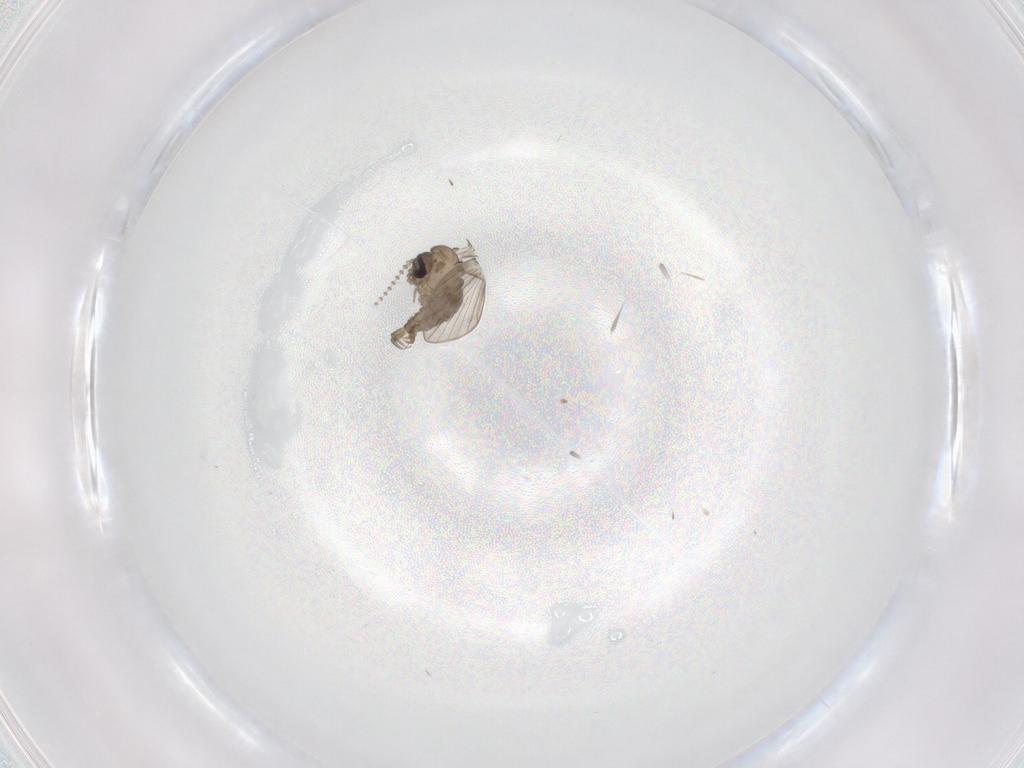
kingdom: Animalia
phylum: Arthropoda
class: Insecta
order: Diptera
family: Psychodidae
